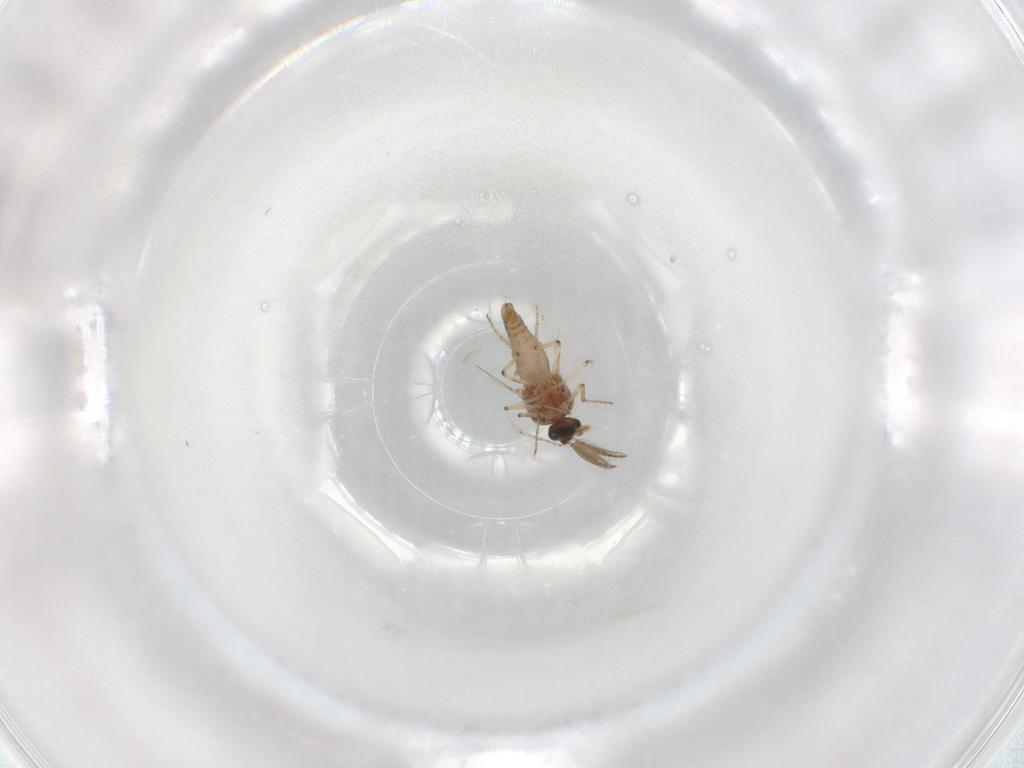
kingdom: Animalia
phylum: Arthropoda
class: Insecta
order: Diptera
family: Ceratopogonidae
